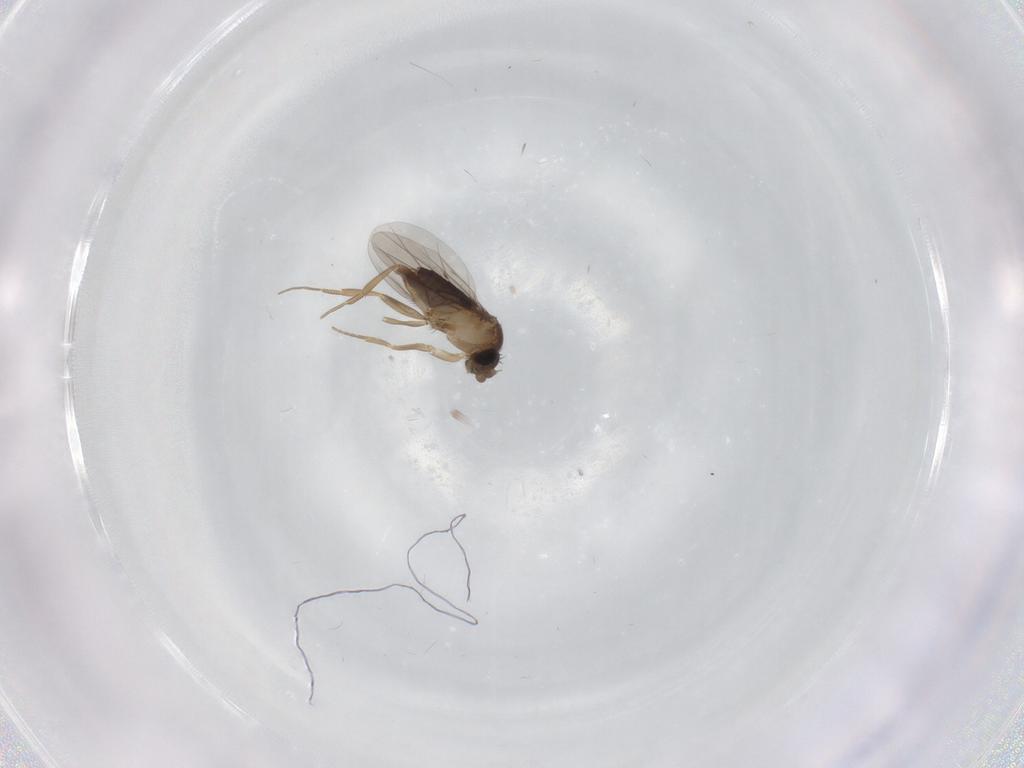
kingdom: Animalia
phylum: Arthropoda
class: Insecta
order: Diptera
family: Phoridae
